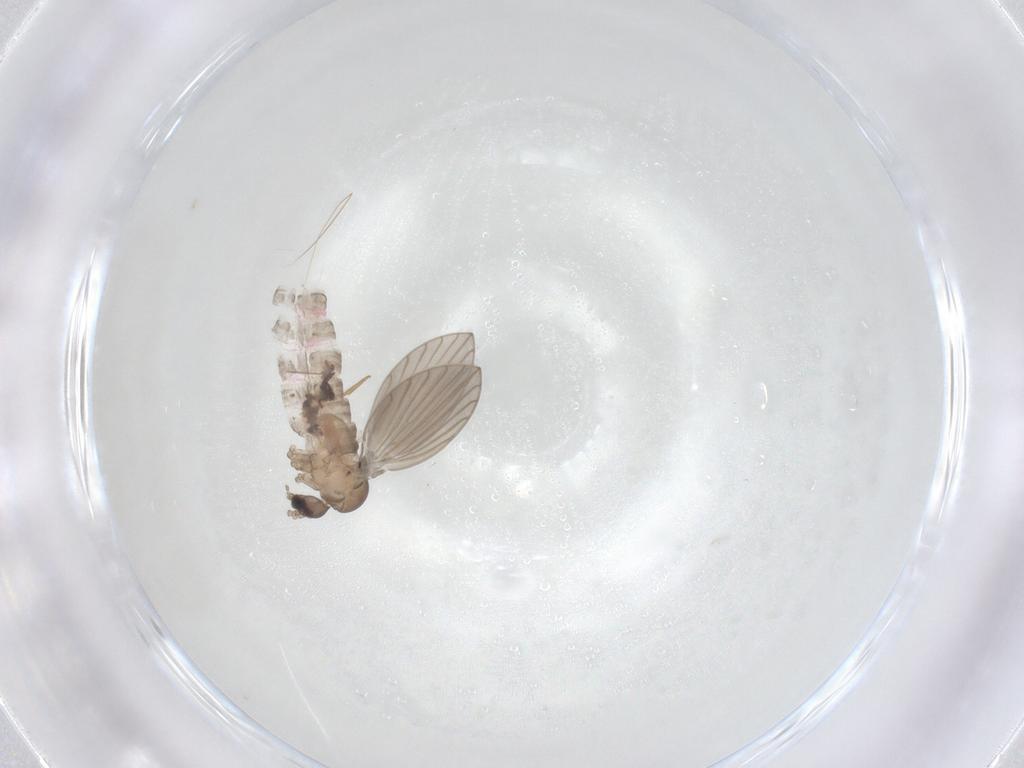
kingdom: Animalia
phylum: Arthropoda
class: Insecta
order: Diptera
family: Psychodidae
